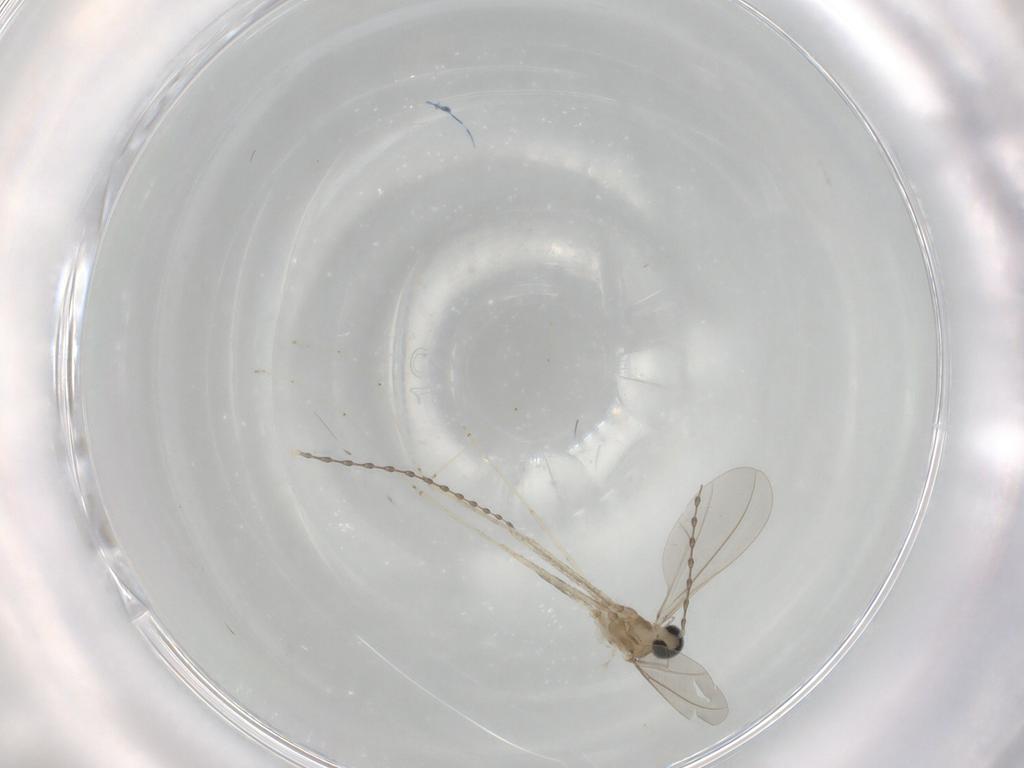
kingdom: Animalia
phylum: Arthropoda
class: Insecta
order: Diptera
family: Cecidomyiidae
